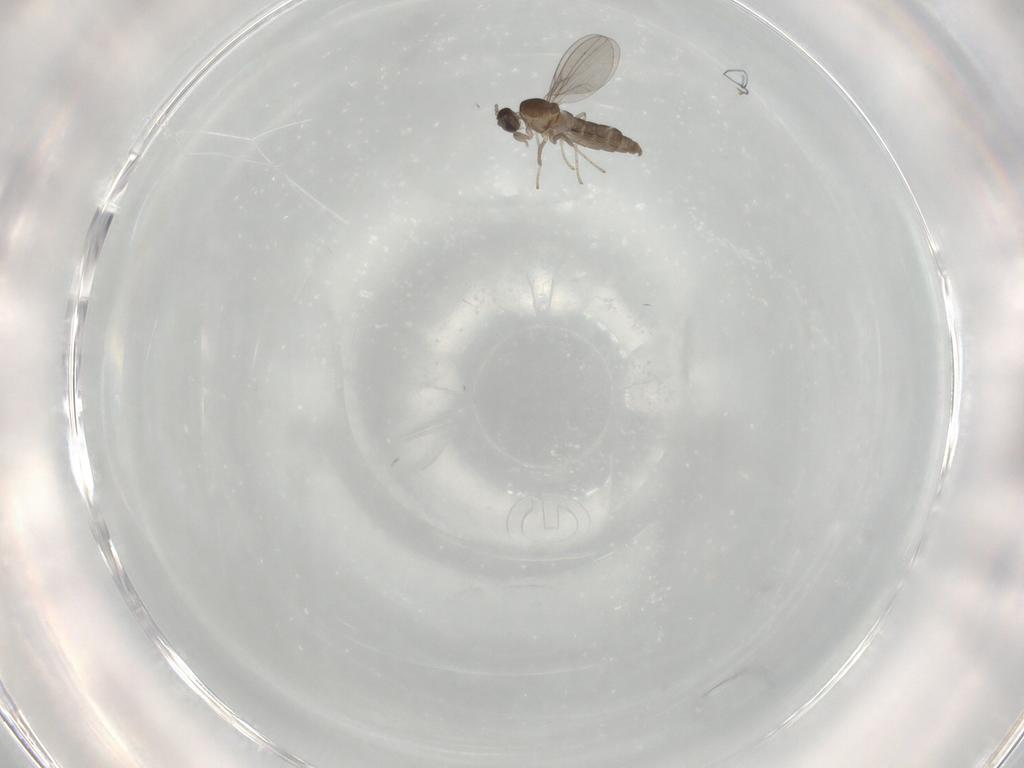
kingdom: Animalia
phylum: Arthropoda
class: Insecta
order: Diptera
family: Cecidomyiidae
